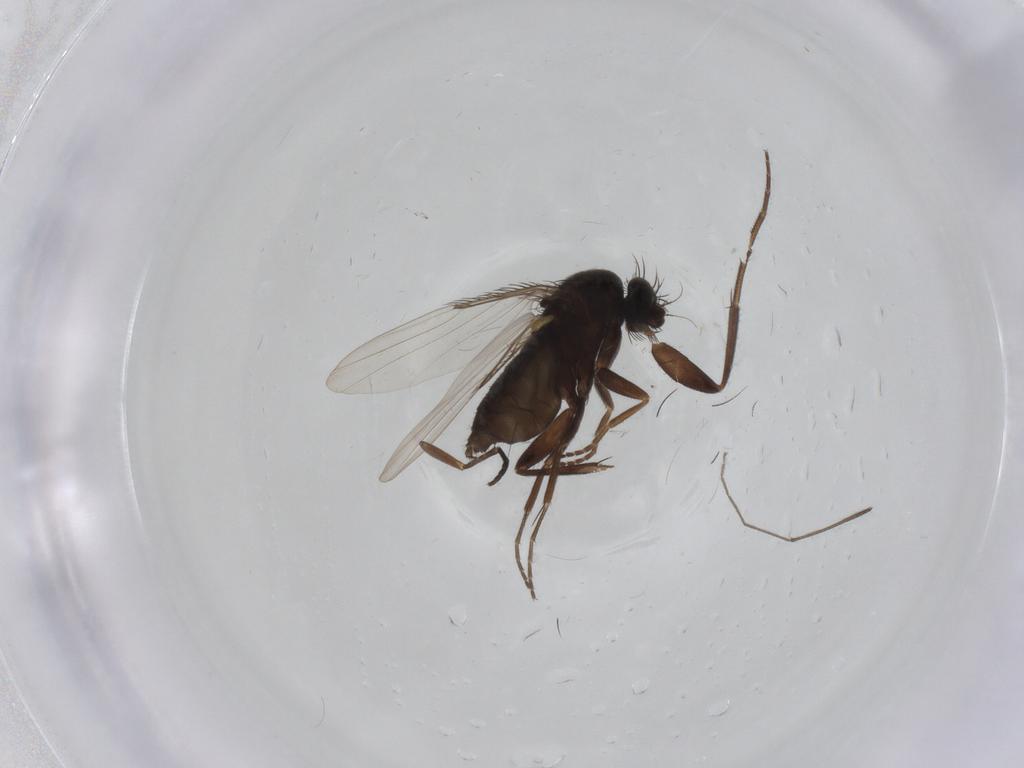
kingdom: Animalia
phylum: Arthropoda
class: Insecta
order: Diptera
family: Phoridae
